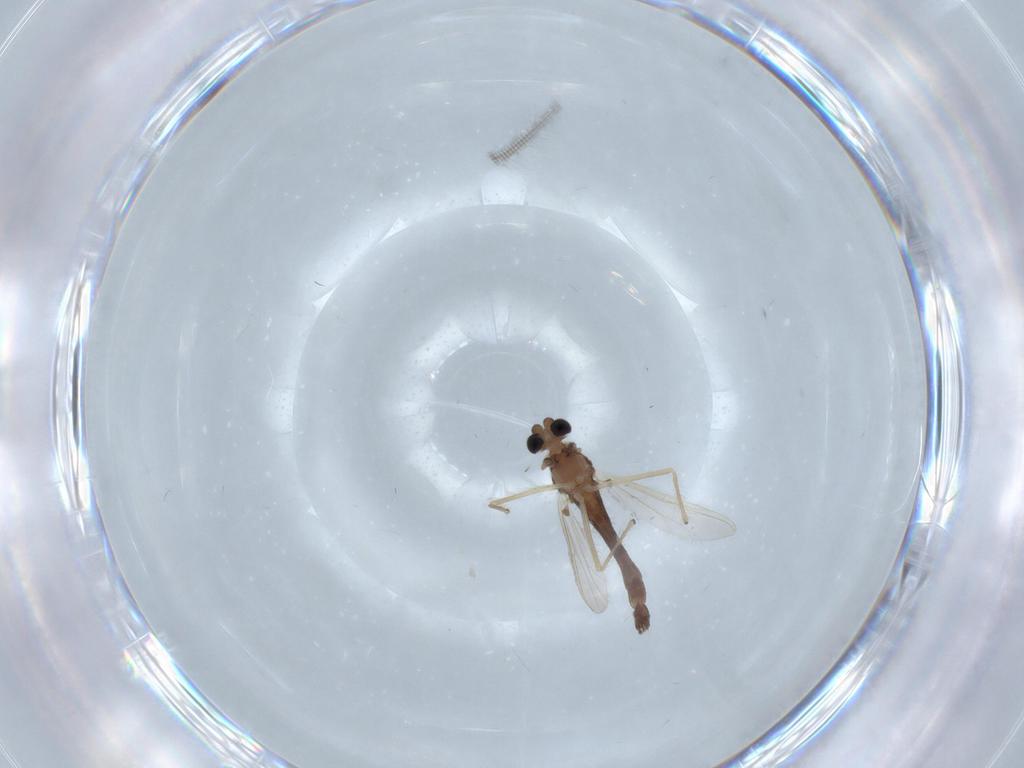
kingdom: Animalia
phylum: Arthropoda
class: Insecta
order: Diptera
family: Chironomidae
